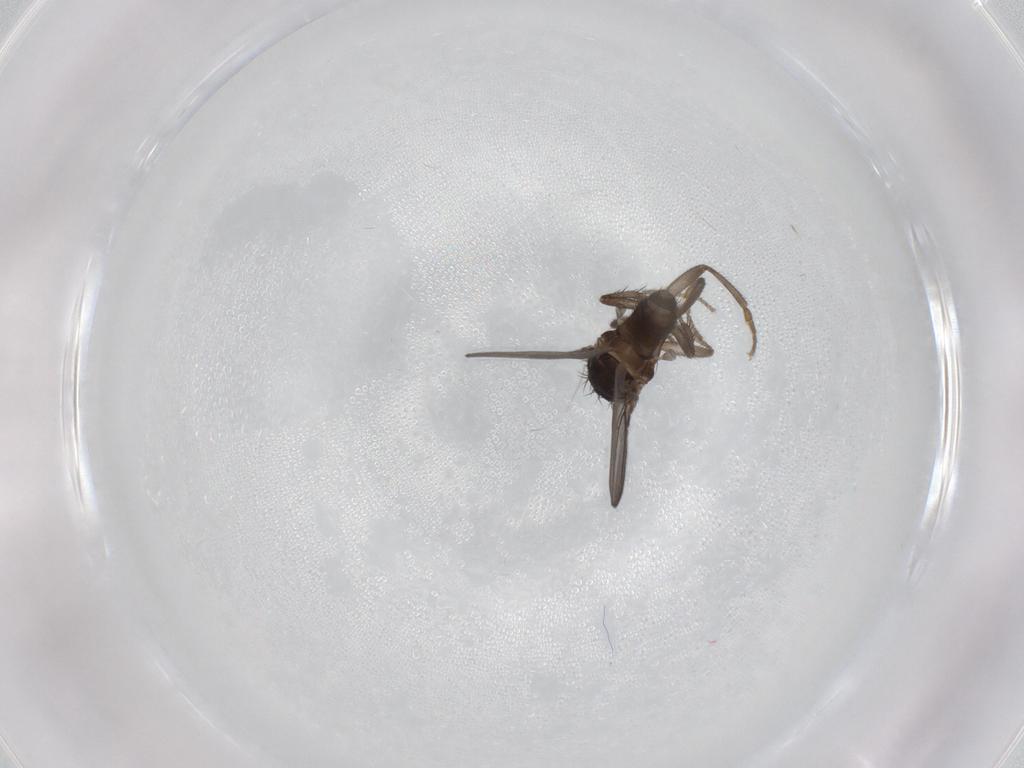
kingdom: Animalia
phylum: Arthropoda
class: Insecta
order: Diptera
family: Sphaeroceridae
